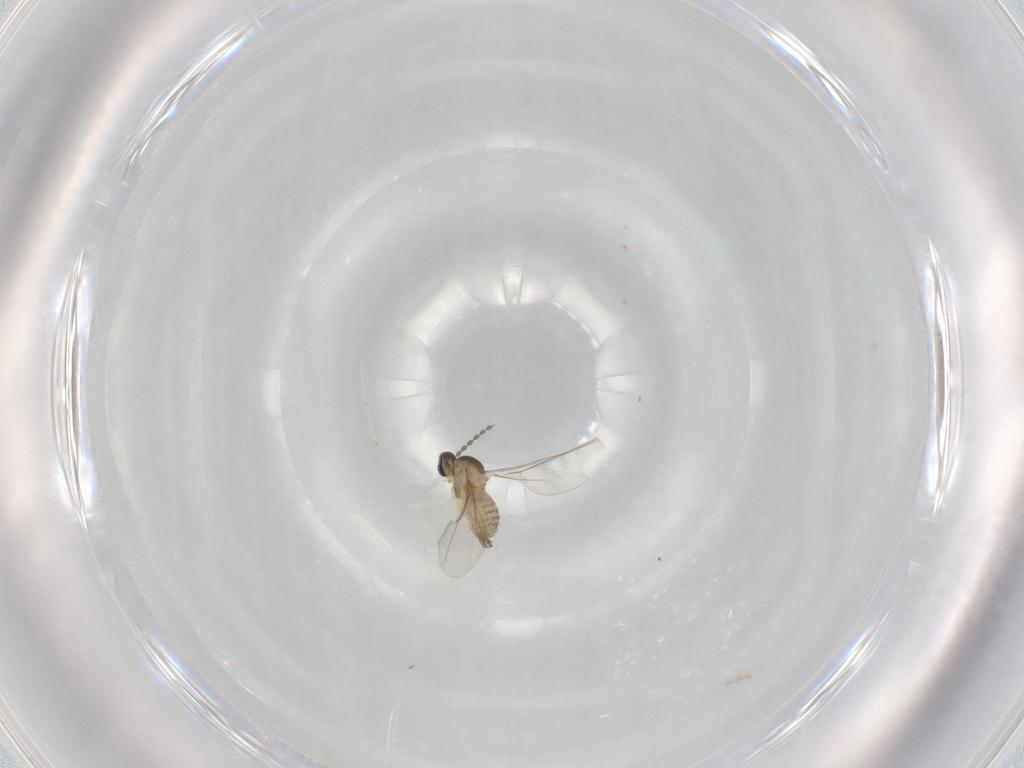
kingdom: Animalia
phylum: Arthropoda
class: Insecta
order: Diptera
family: Cecidomyiidae
